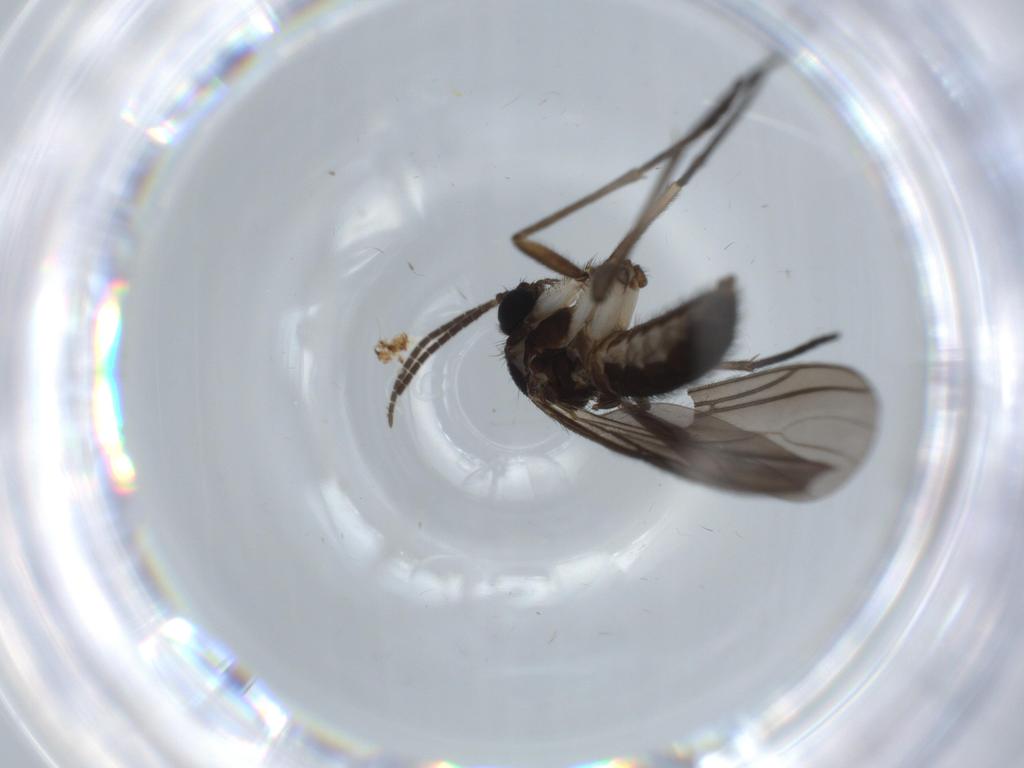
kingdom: Animalia
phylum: Arthropoda
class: Insecta
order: Diptera
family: Sciaridae
